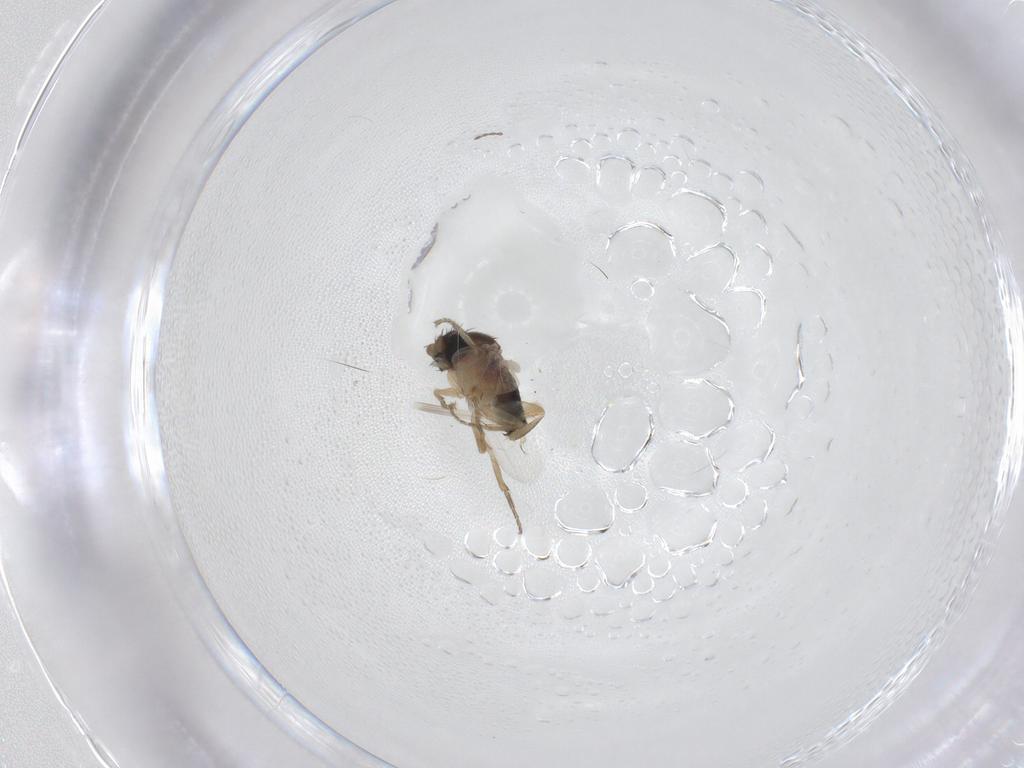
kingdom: Animalia
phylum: Arthropoda
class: Insecta
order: Diptera
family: Chironomidae
